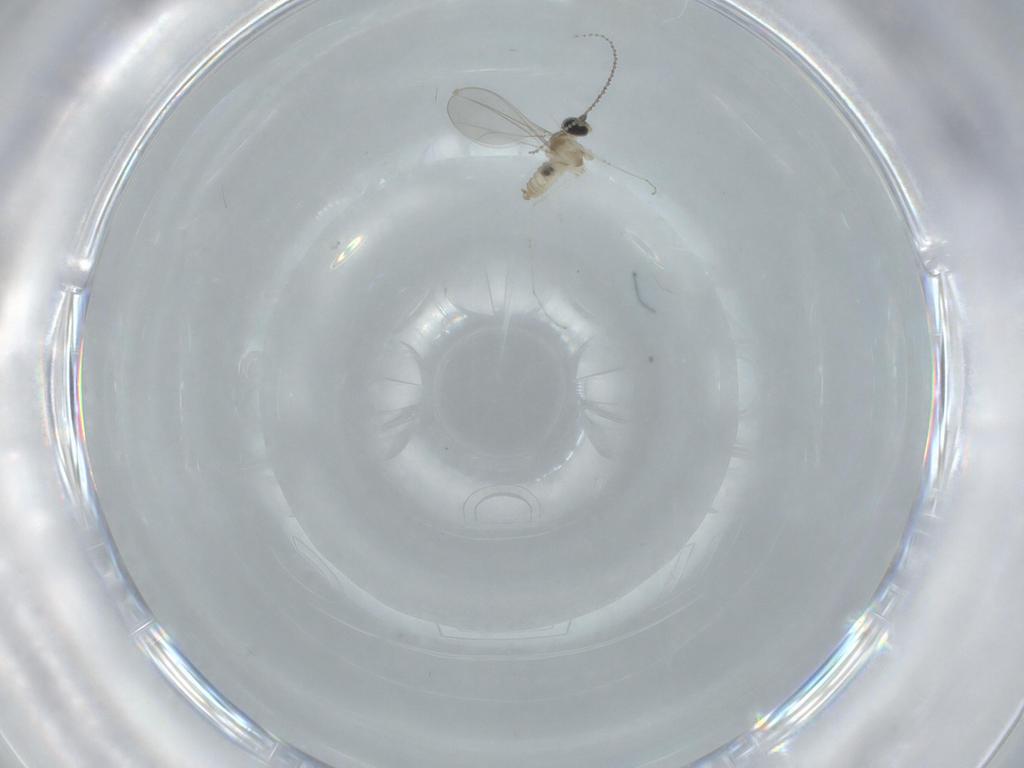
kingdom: Animalia
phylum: Arthropoda
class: Insecta
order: Diptera
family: Cecidomyiidae
